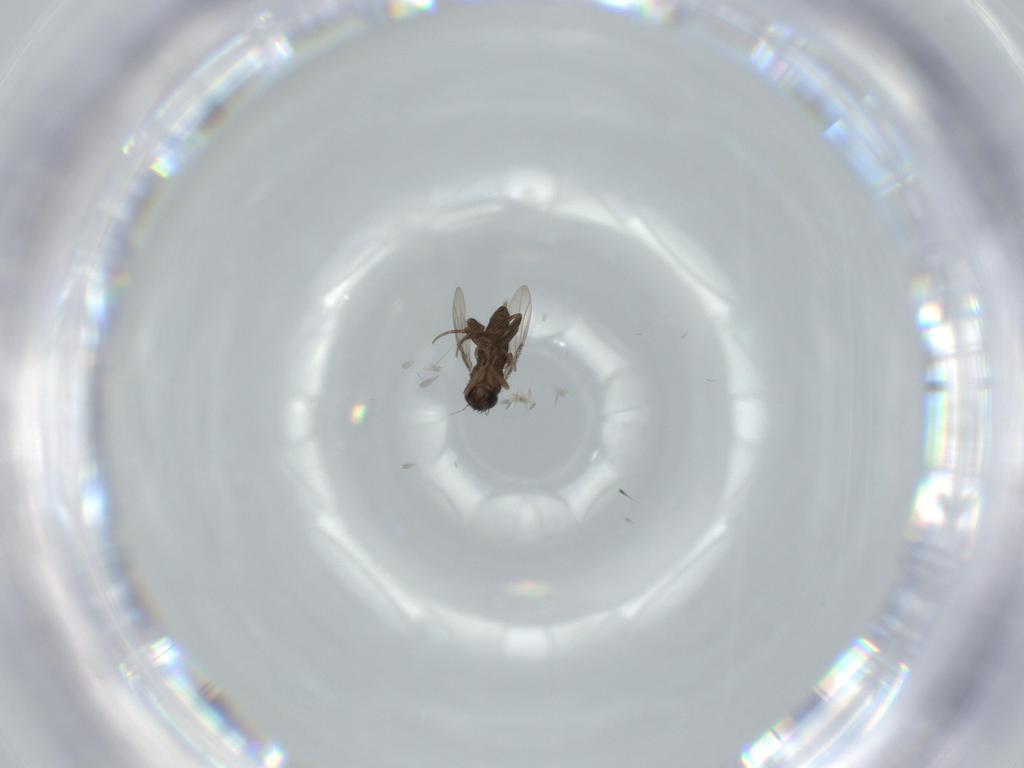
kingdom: Animalia
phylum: Arthropoda
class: Insecta
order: Diptera
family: Phoridae
